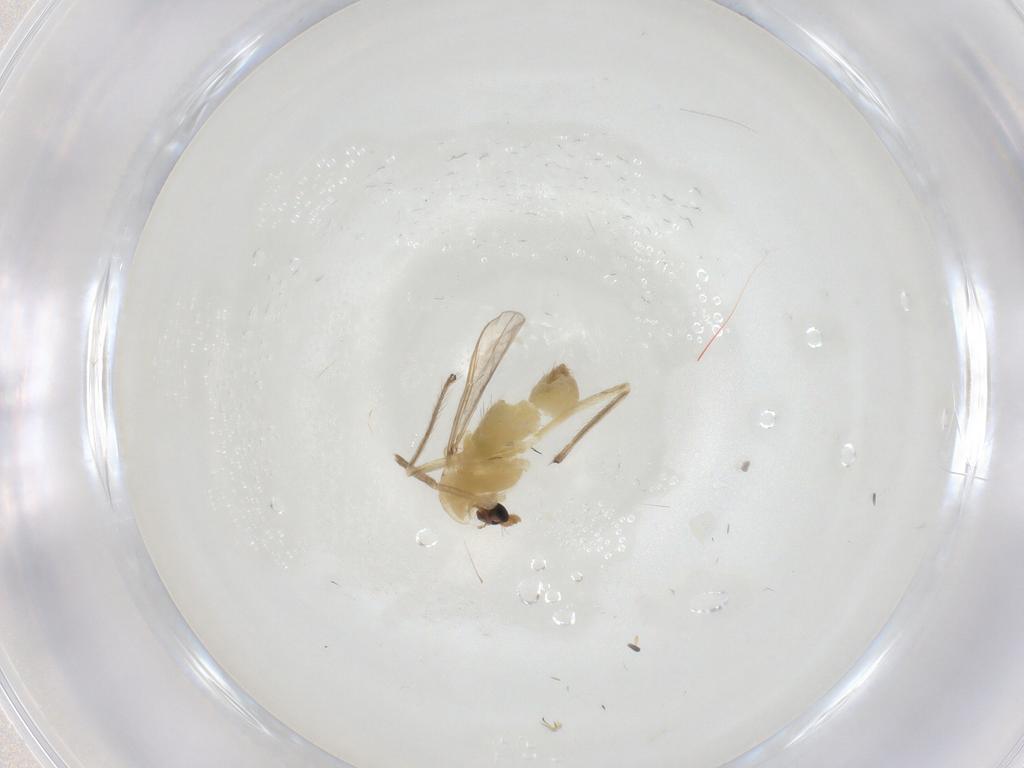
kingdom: Animalia
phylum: Arthropoda
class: Insecta
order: Diptera
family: Chironomidae
